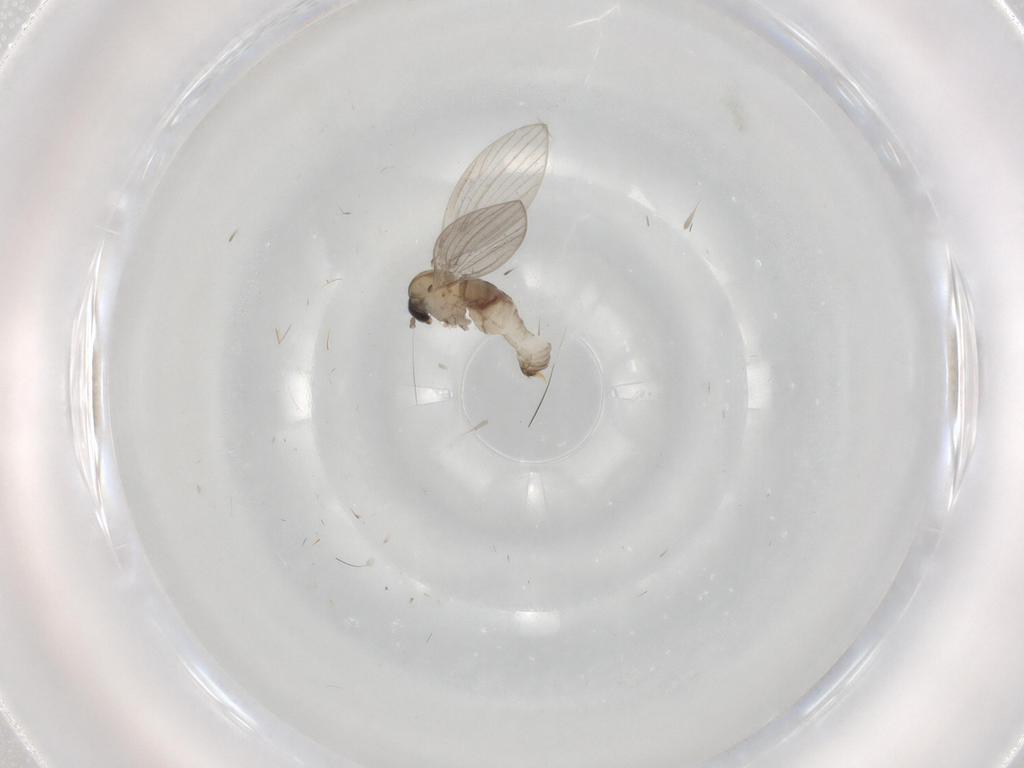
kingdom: Animalia
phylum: Arthropoda
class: Insecta
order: Diptera
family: Psychodidae
